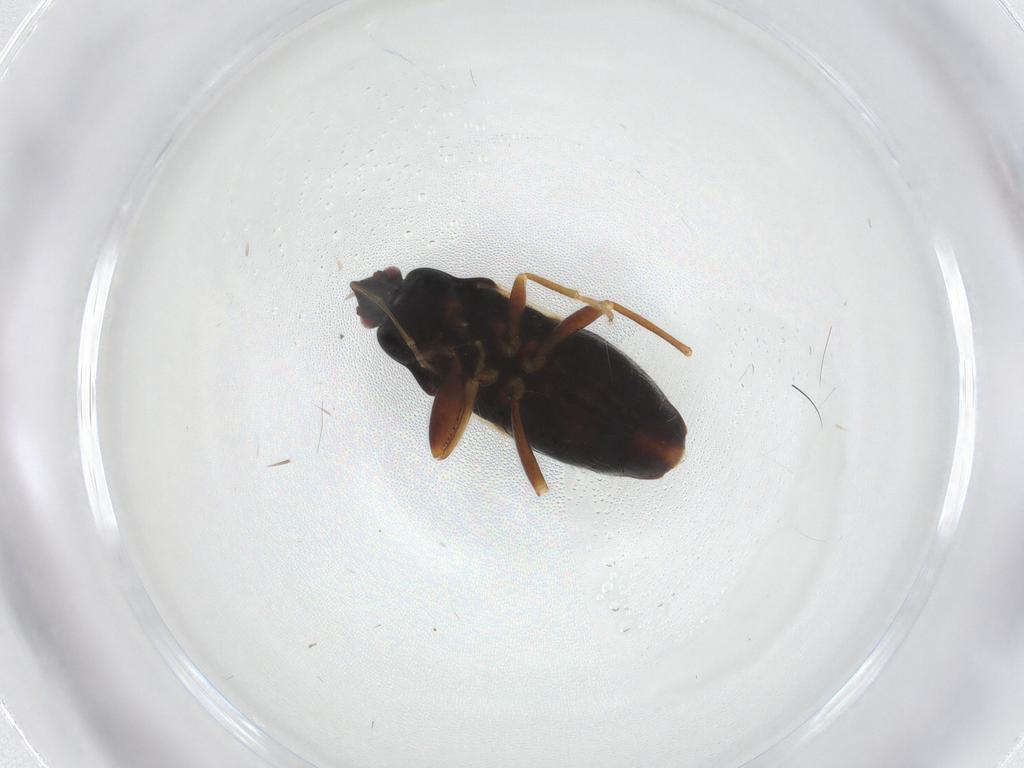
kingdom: Animalia
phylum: Arthropoda
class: Insecta
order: Hemiptera
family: Rhyparochromidae
